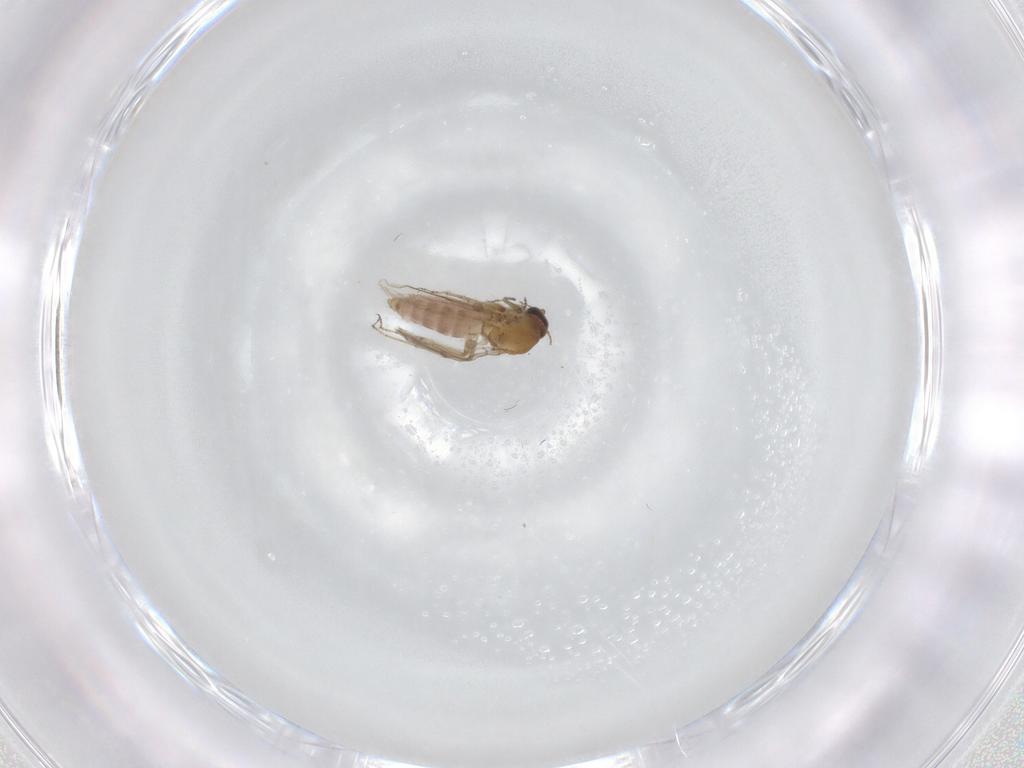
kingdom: Animalia
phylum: Arthropoda
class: Insecta
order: Diptera
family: Ceratopogonidae
